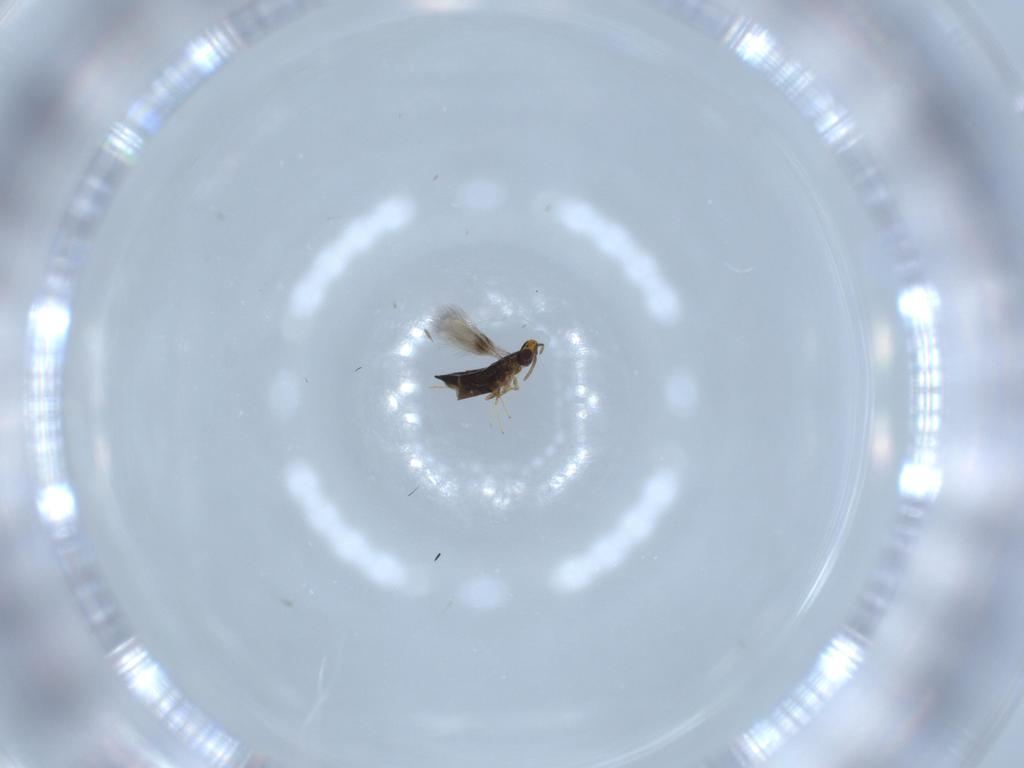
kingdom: Animalia
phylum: Arthropoda
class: Insecta
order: Hymenoptera
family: Signiphoridae
